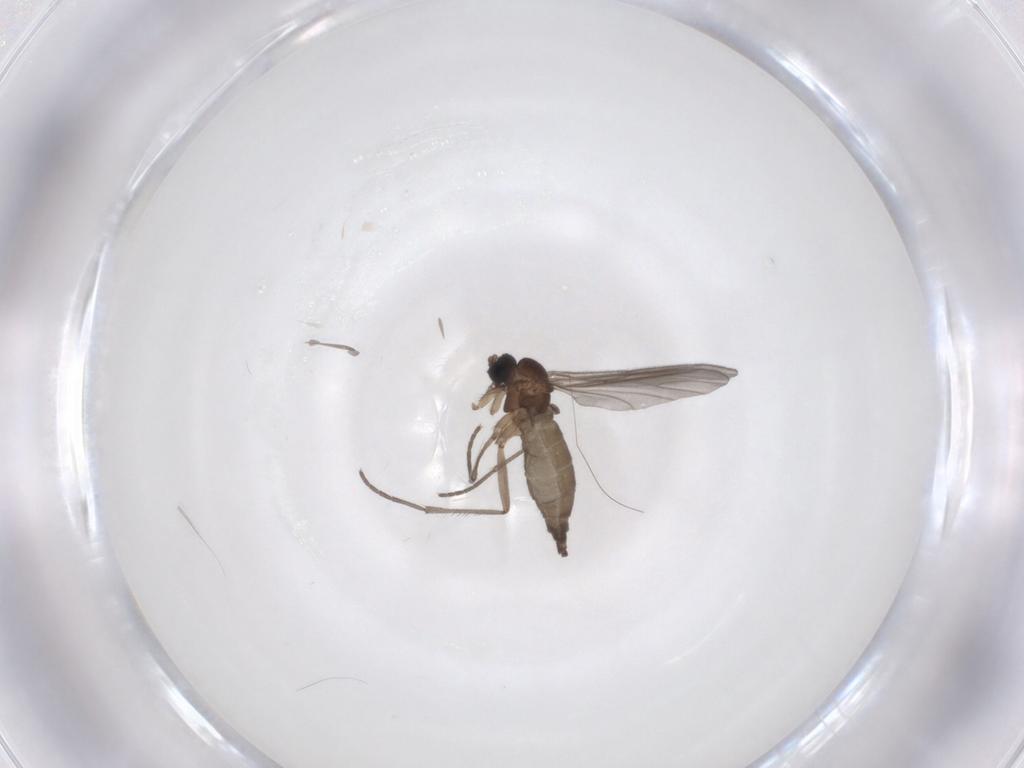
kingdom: Animalia
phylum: Arthropoda
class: Insecta
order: Diptera
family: Sciaridae
